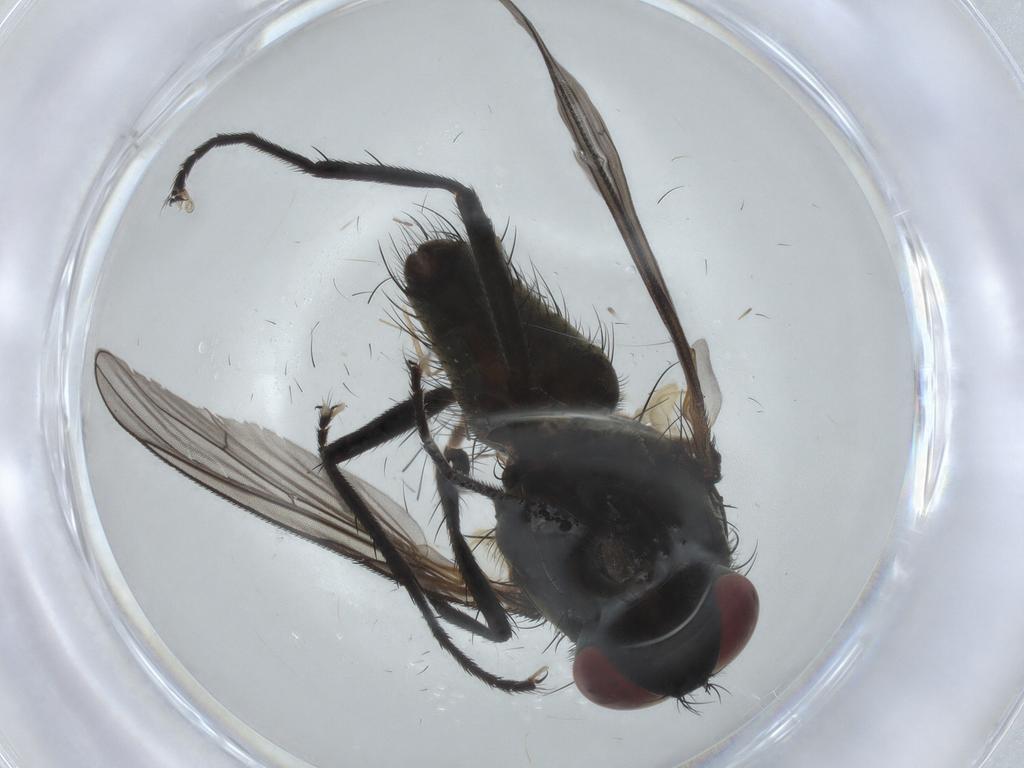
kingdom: Animalia
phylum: Arthropoda
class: Insecta
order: Diptera
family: Muscidae
